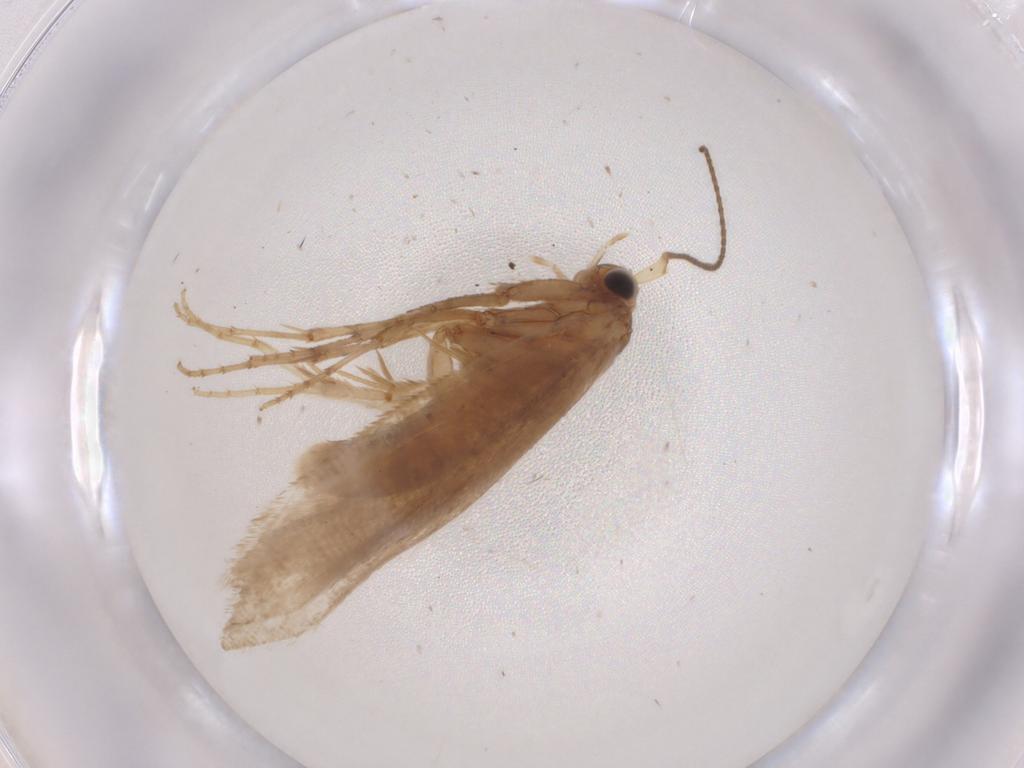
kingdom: Animalia
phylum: Arthropoda
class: Insecta
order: Lepidoptera
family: Argyresthiidae
